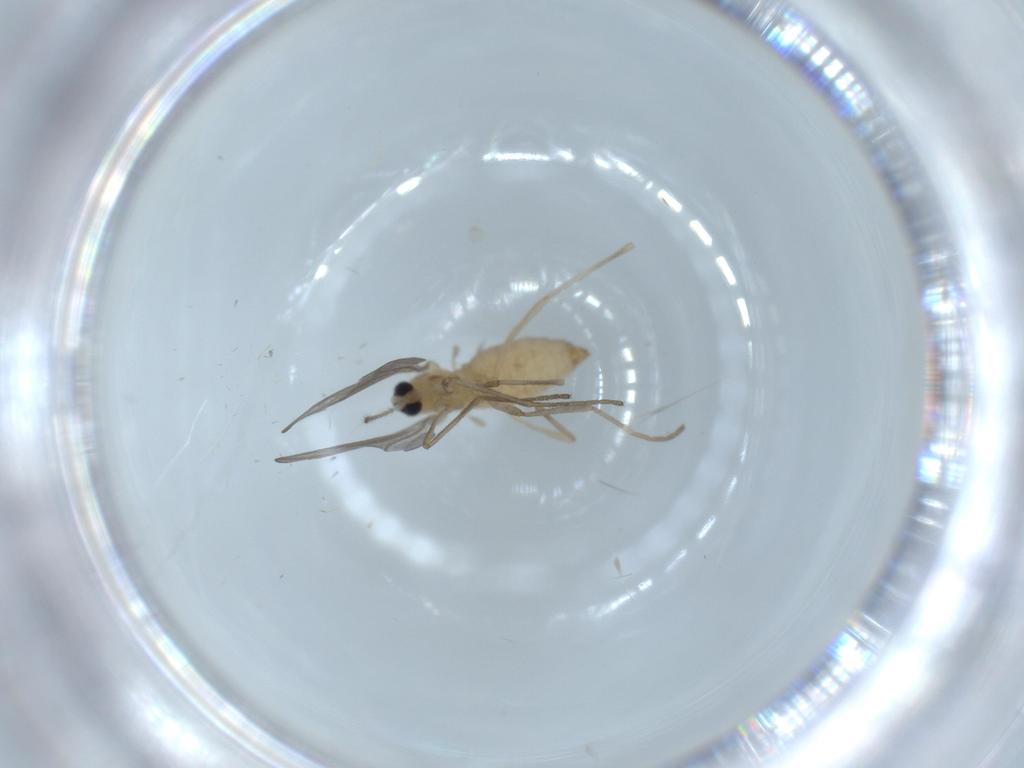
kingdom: Animalia
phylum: Arthropoda
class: Insecta
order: Diptera
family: Asilidae
